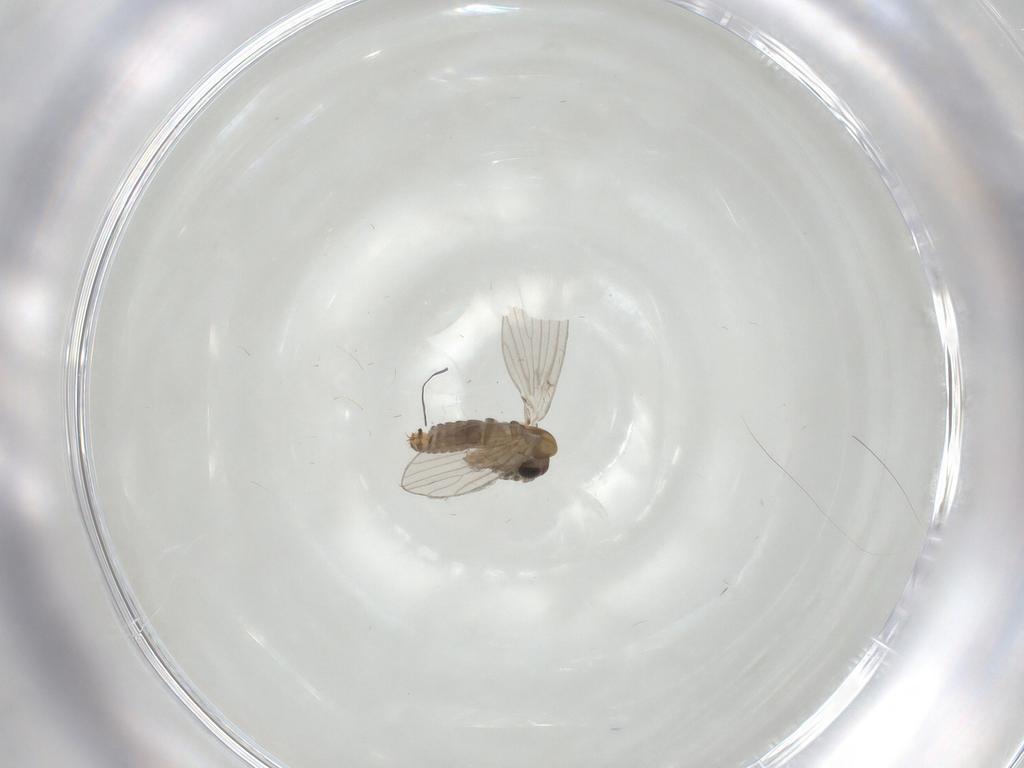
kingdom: Animalia
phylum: Arthropoda
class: Insecta
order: Diptera
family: Psychodidae
